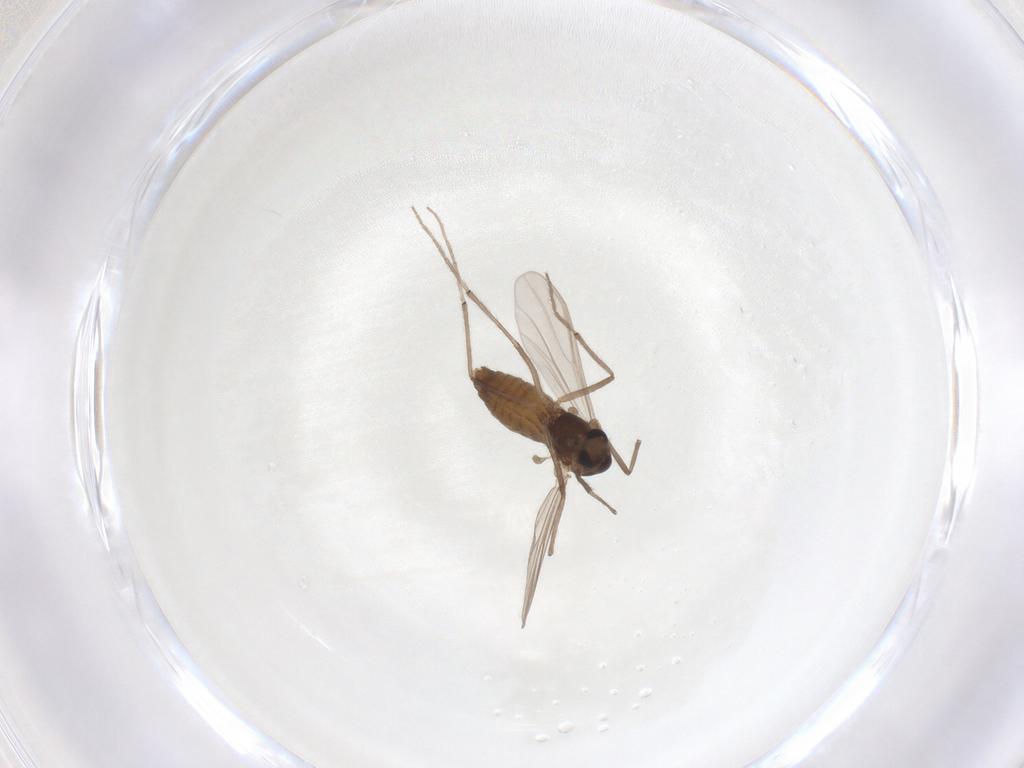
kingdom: Animalia
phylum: Arthropoda
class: Insecta
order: Diptera
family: Chironomidae
